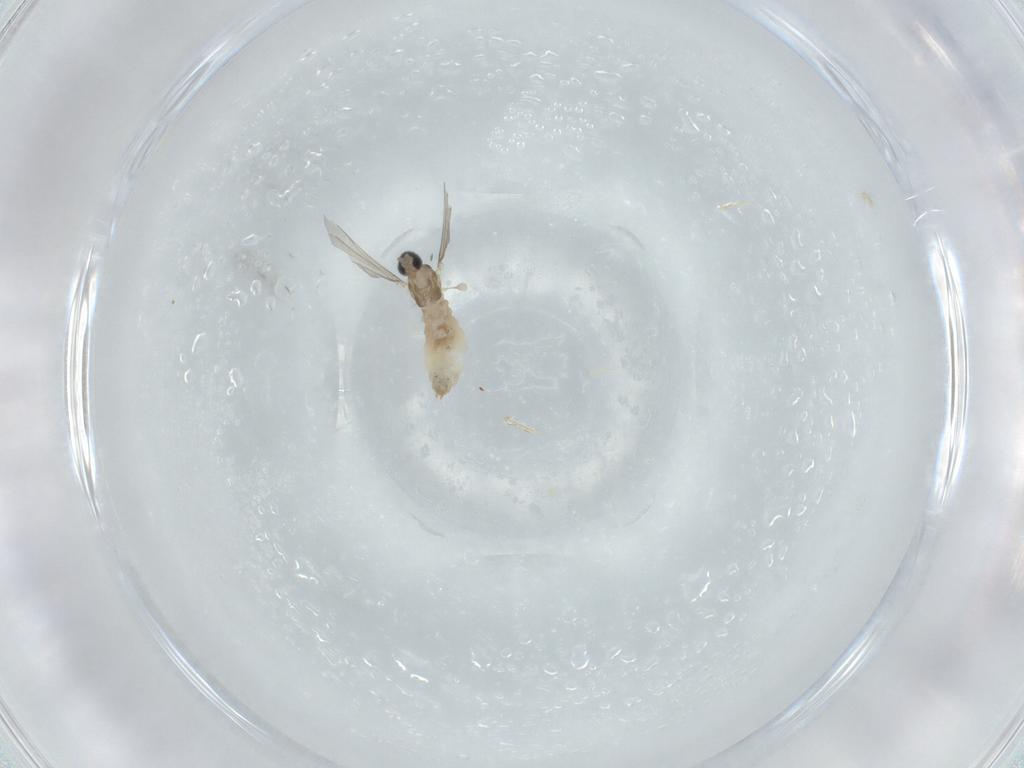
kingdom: Animalia
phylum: Arthropoda
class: Insecta
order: Diptera
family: Cecidomyiidae
